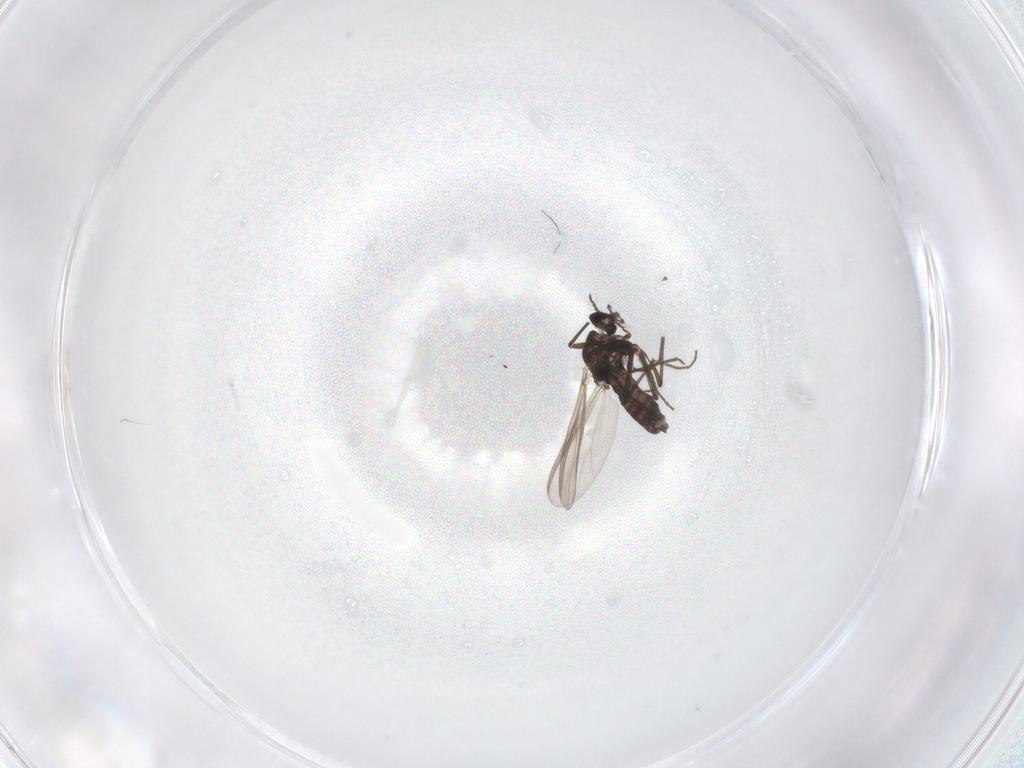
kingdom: Animalia
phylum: Arthropoda
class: Insecta
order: Diptera
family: Chironomidae
